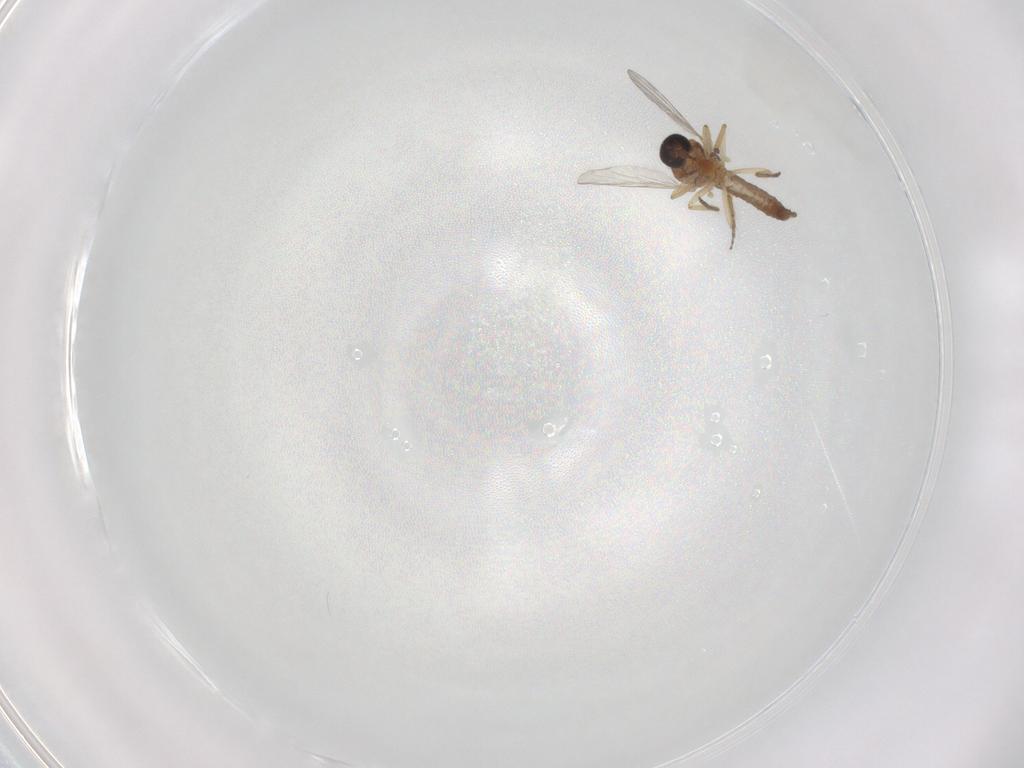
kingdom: Animalia
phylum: Arthropoda
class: Insecta
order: Diptera
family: Ceratopogonidae
